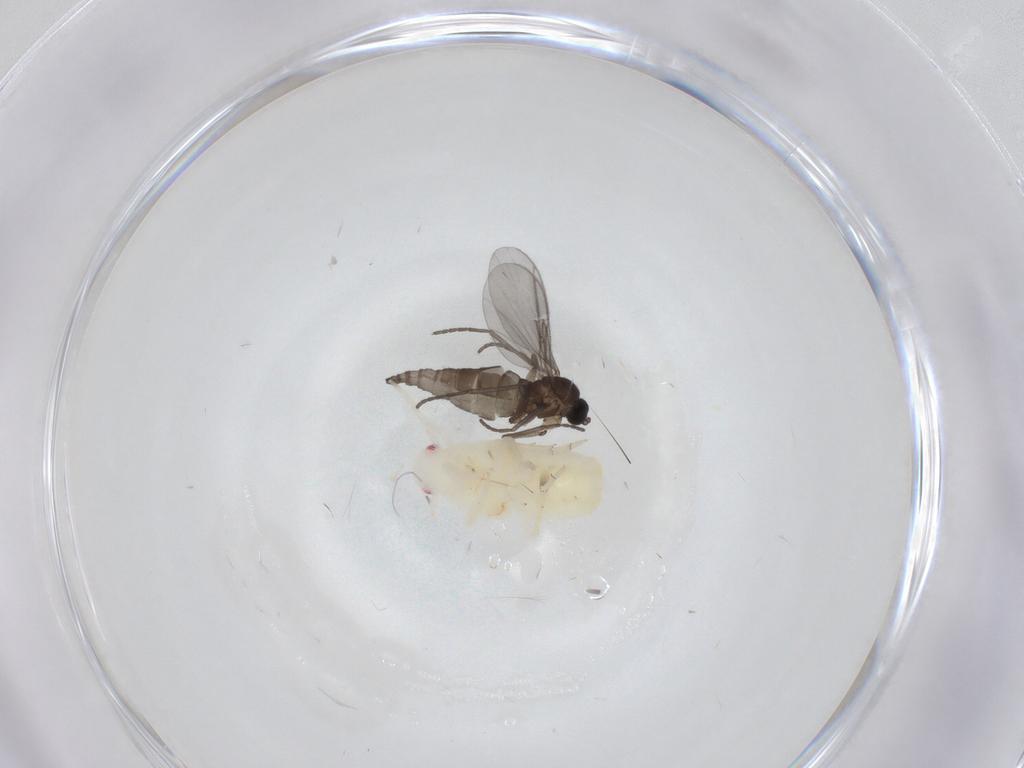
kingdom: Animalia
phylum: Arthropoda
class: Insecta
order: Hemiptera
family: Flatidae
